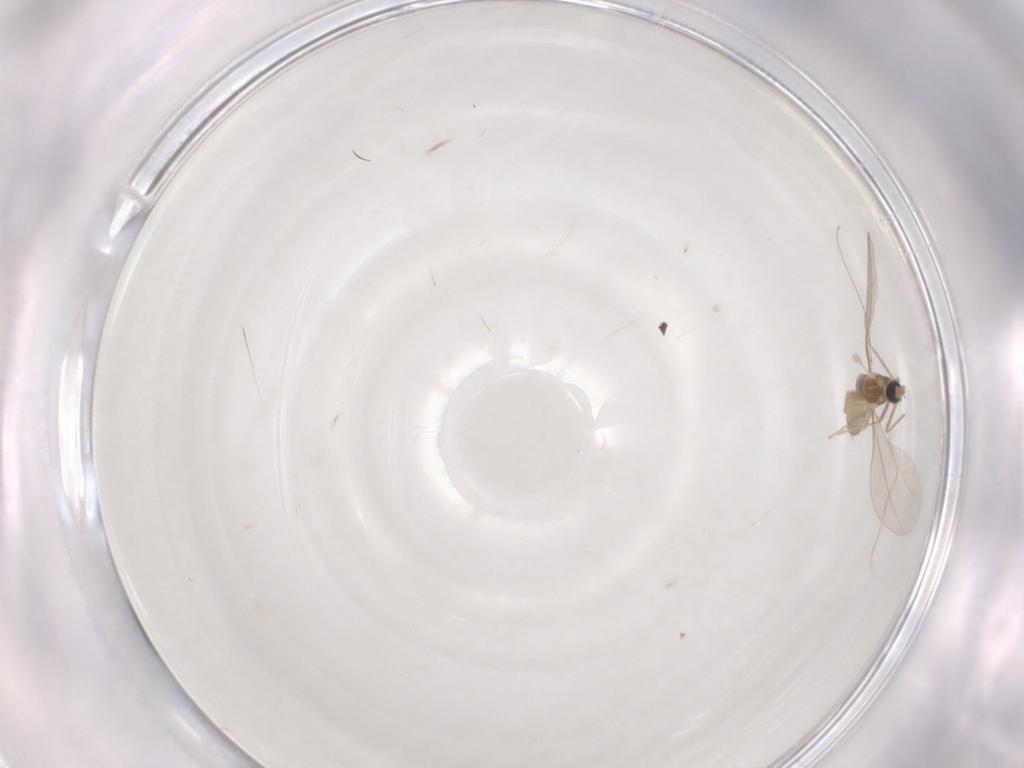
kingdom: Animalia
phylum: Arthropoda
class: Insecta
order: Diptera
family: Cecidomyiidae
